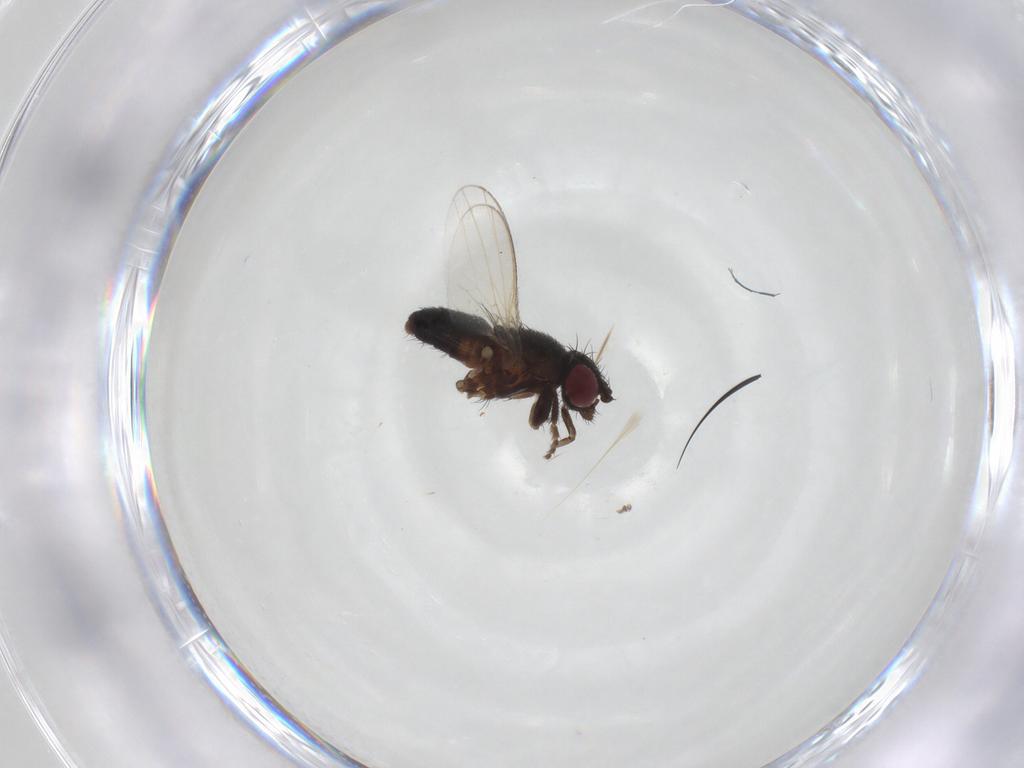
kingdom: Animalia
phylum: Arthropoda
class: Insecta
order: Diptera
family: Milichiidae
